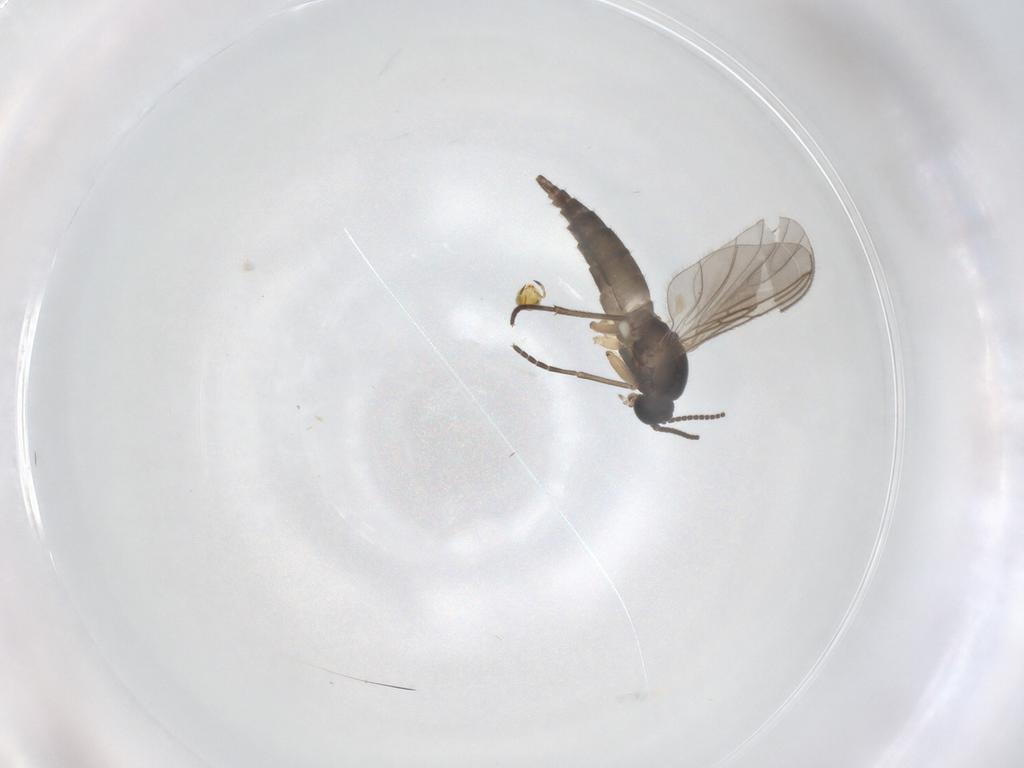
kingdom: Animalia
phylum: Arthropoda
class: Insecta
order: Diptera
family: Sciaridae
